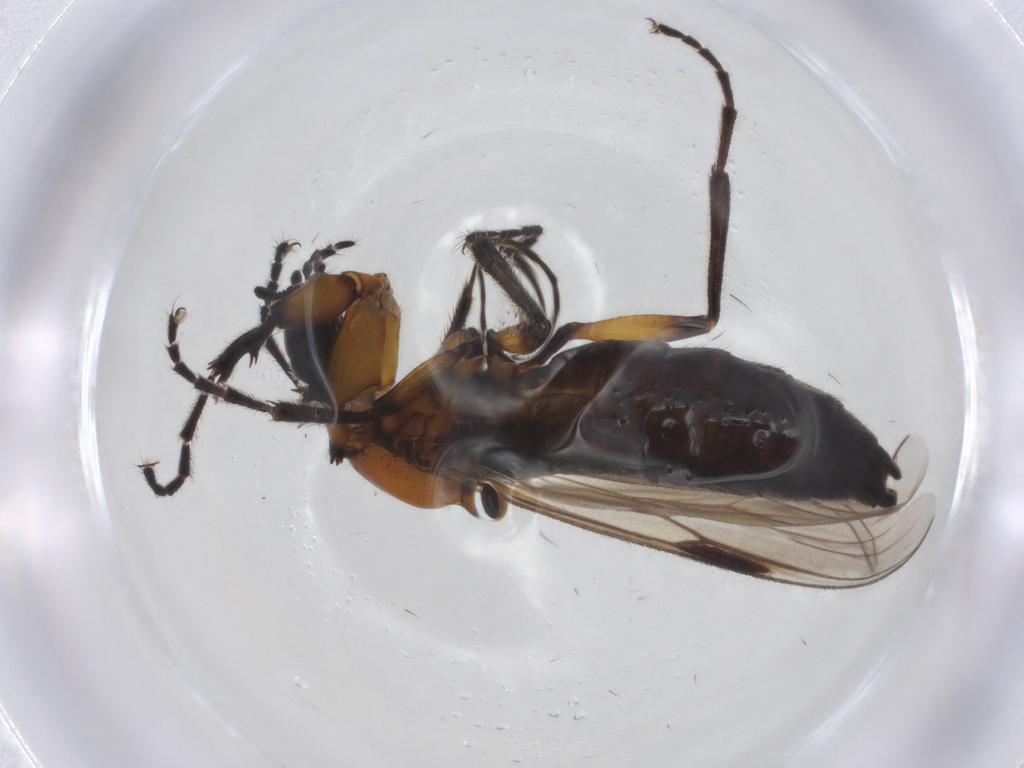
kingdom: Animalia
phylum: Arthropoda
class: Insecta
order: Diptera
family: Bibionidae
